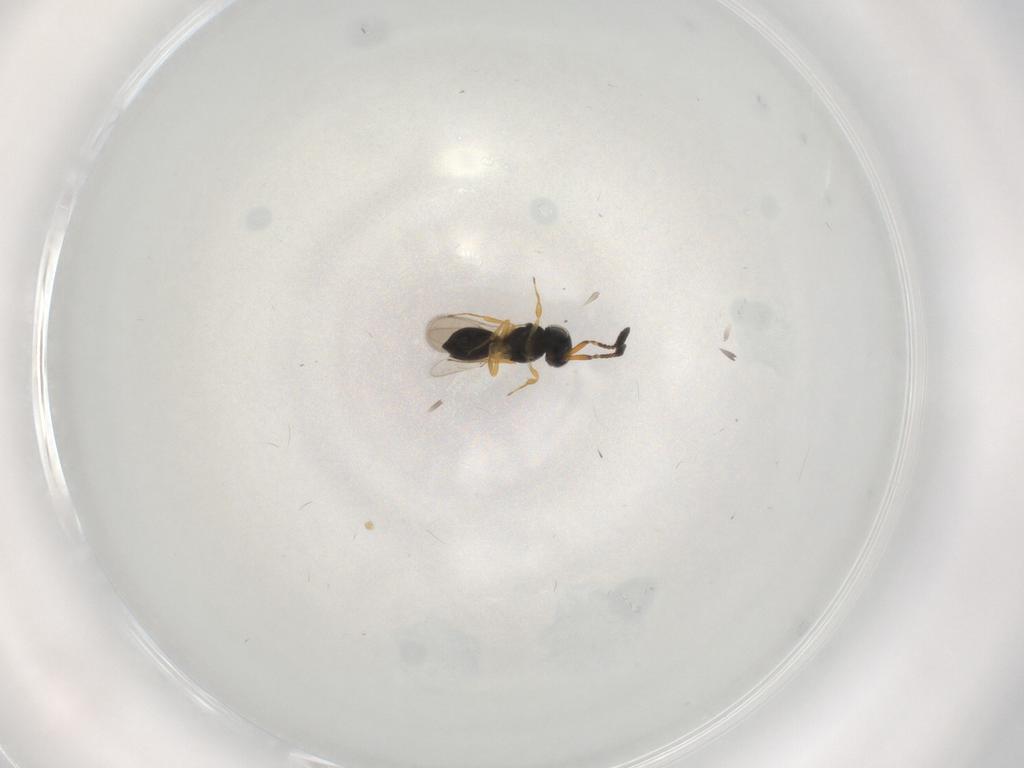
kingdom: Animalia
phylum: Arthropoda
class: Insecta
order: Hymenoptera
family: Scelionidae
